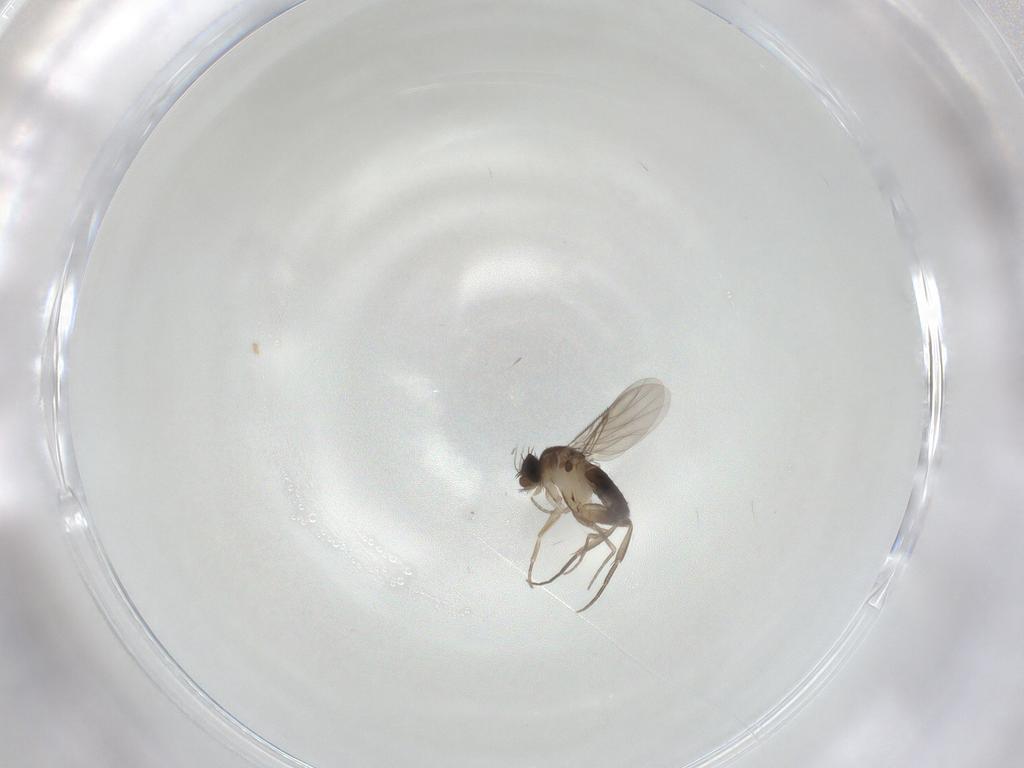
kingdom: Animalia
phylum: Arthropoda
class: Insecta
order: Diptera
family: Phoridae
